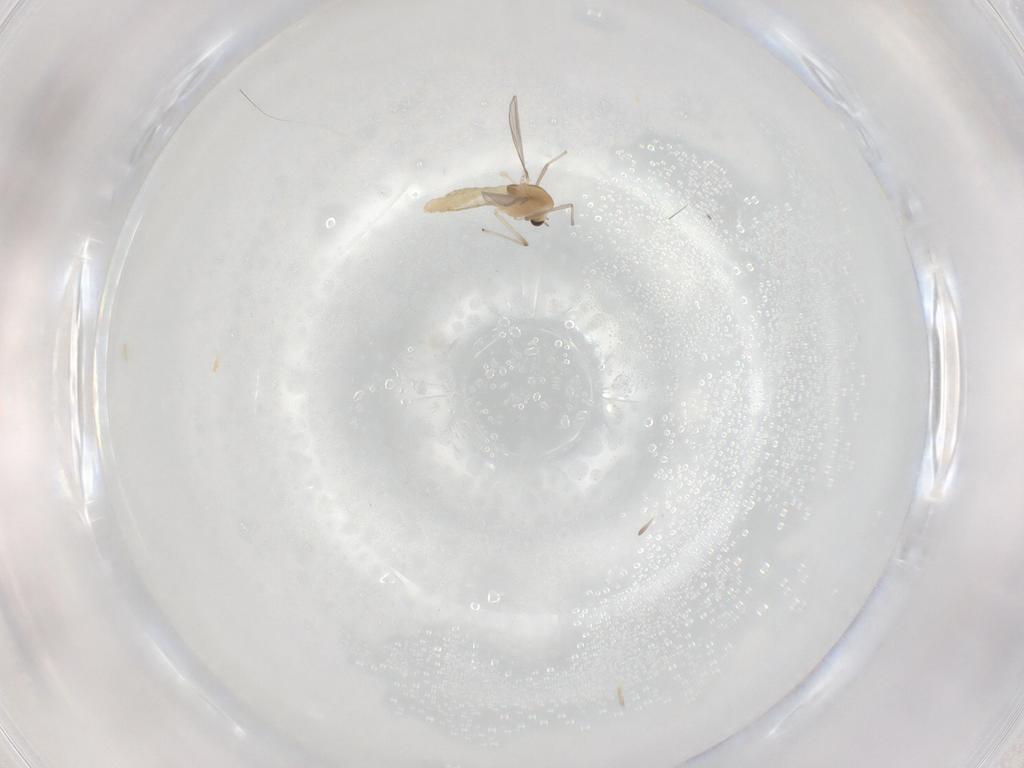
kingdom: Animalia
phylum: Arthropoda
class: Insecta
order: Diptera
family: Chironomidae
